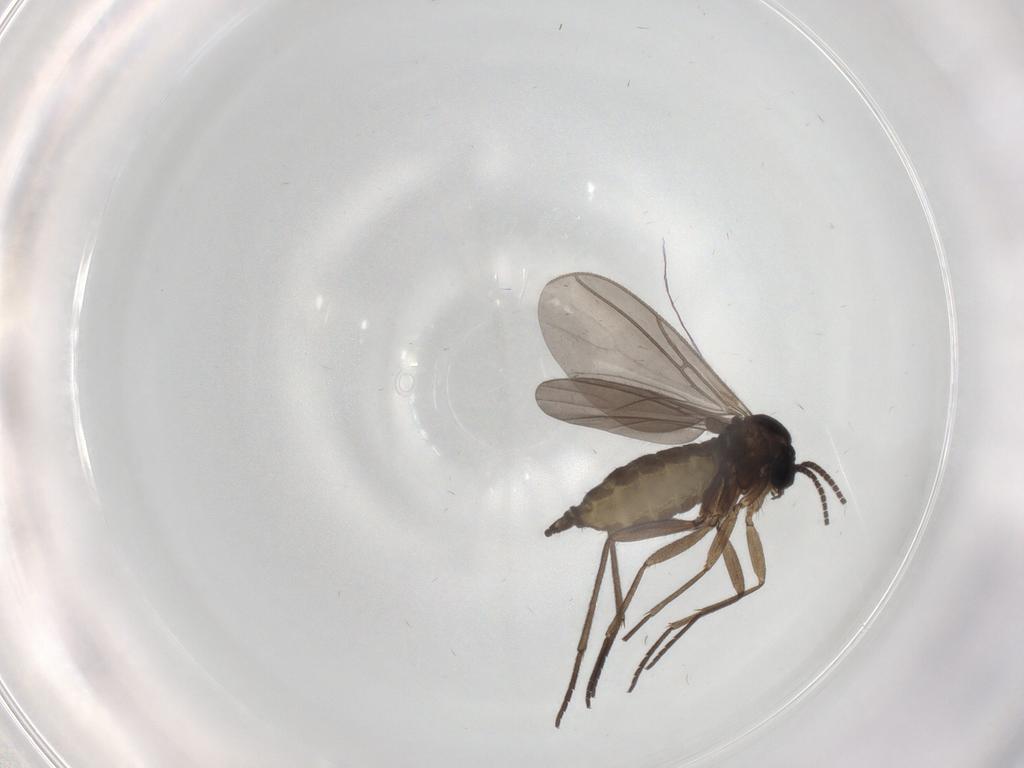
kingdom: Animalia
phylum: Arthropoda
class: Insecta
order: Diptera
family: Sciaridae
